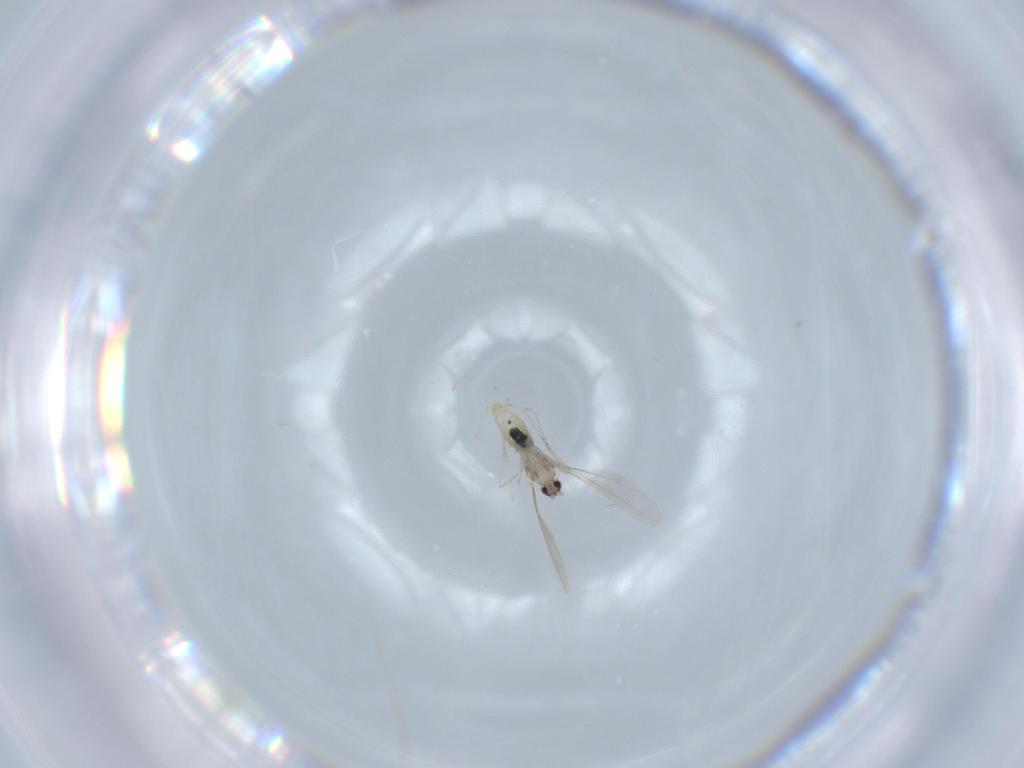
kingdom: Animalia
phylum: Arthropoda
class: Insecta
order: Diptera
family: Cecidomyiidae
